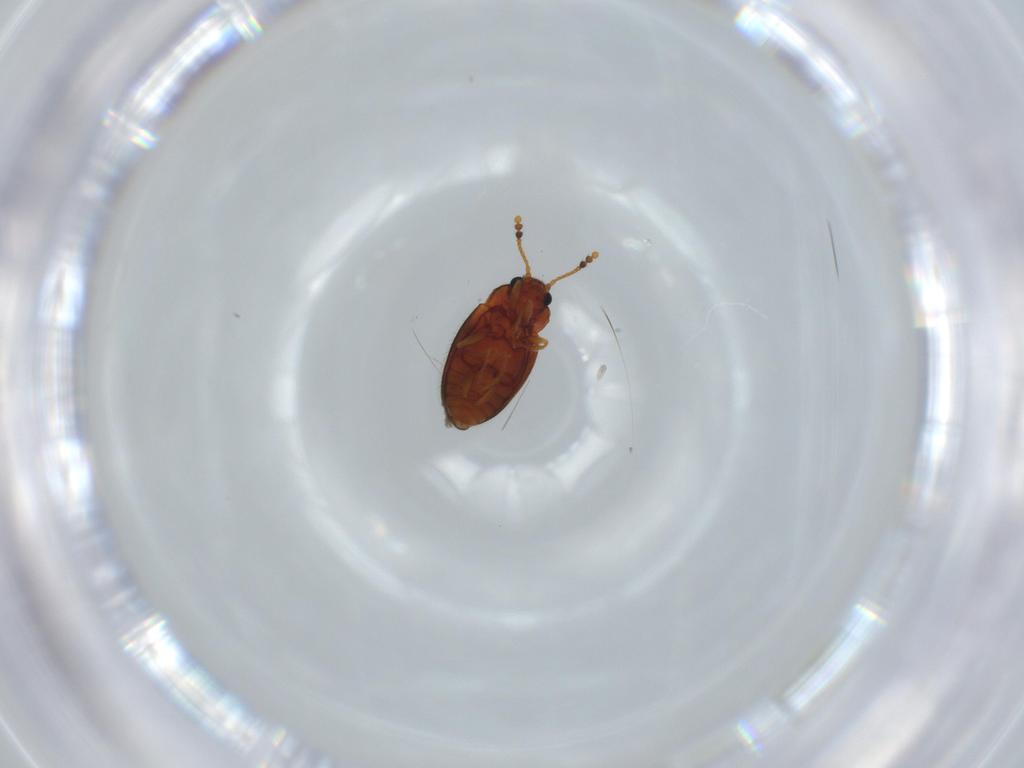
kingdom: Animalia
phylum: Arthropoda
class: Insecta
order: Coleoptera
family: Erotylidae
